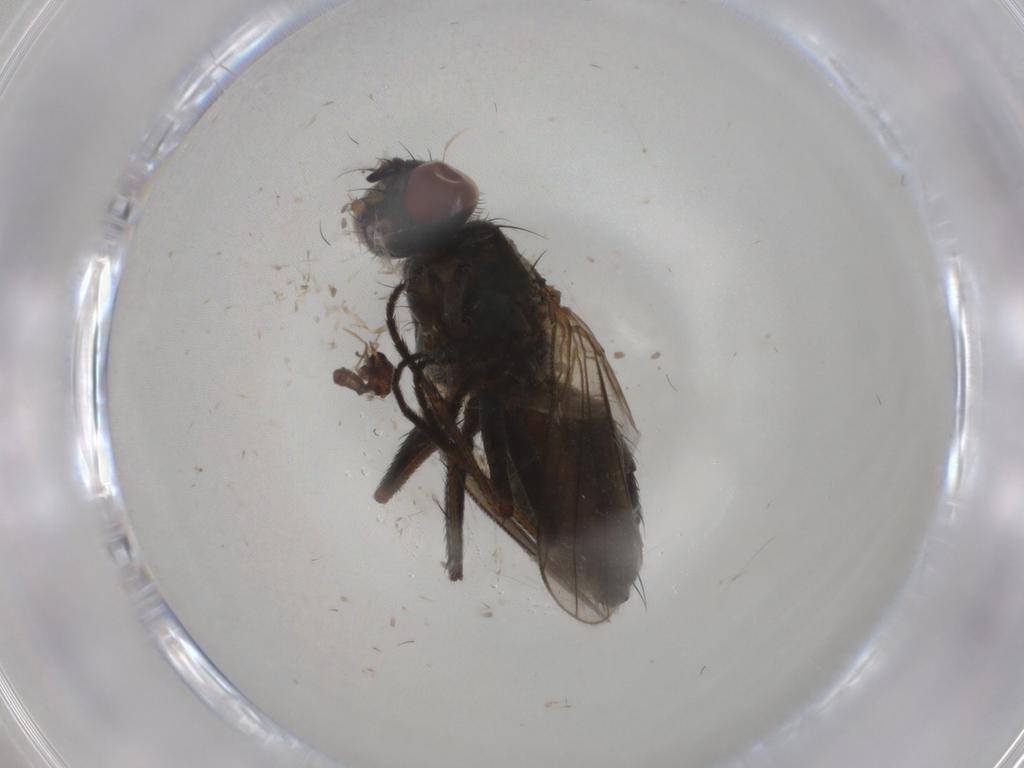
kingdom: Animalia
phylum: Arthropoda
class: Insecta
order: Diptera
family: Muscidae
